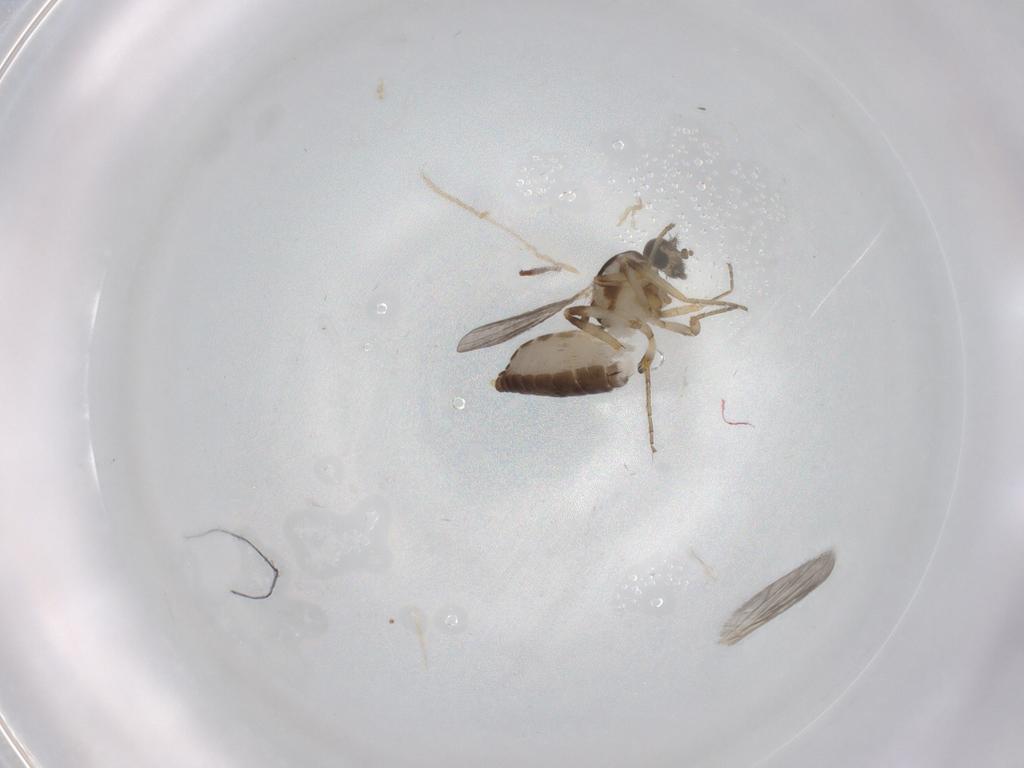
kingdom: Animalia
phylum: Arthropoda
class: Insecta
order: Diptera
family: Ceratopogonidae
